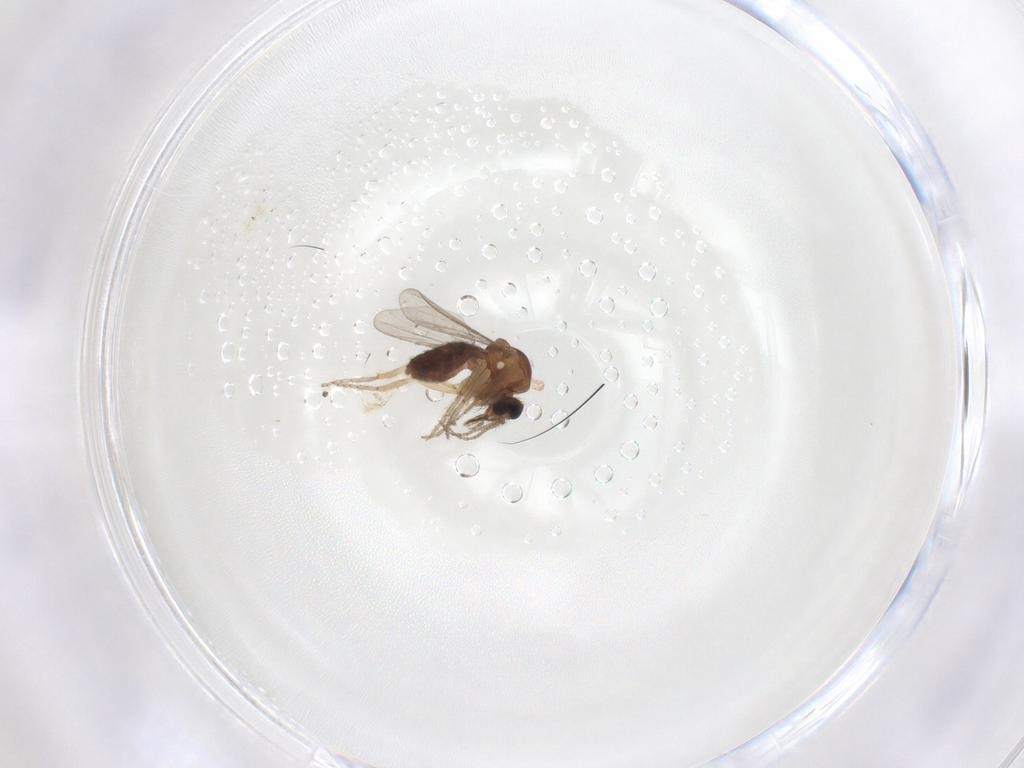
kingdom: Animalia
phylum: Arthropoda
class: Insecta
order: Diptera
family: Ceratopogonidae
